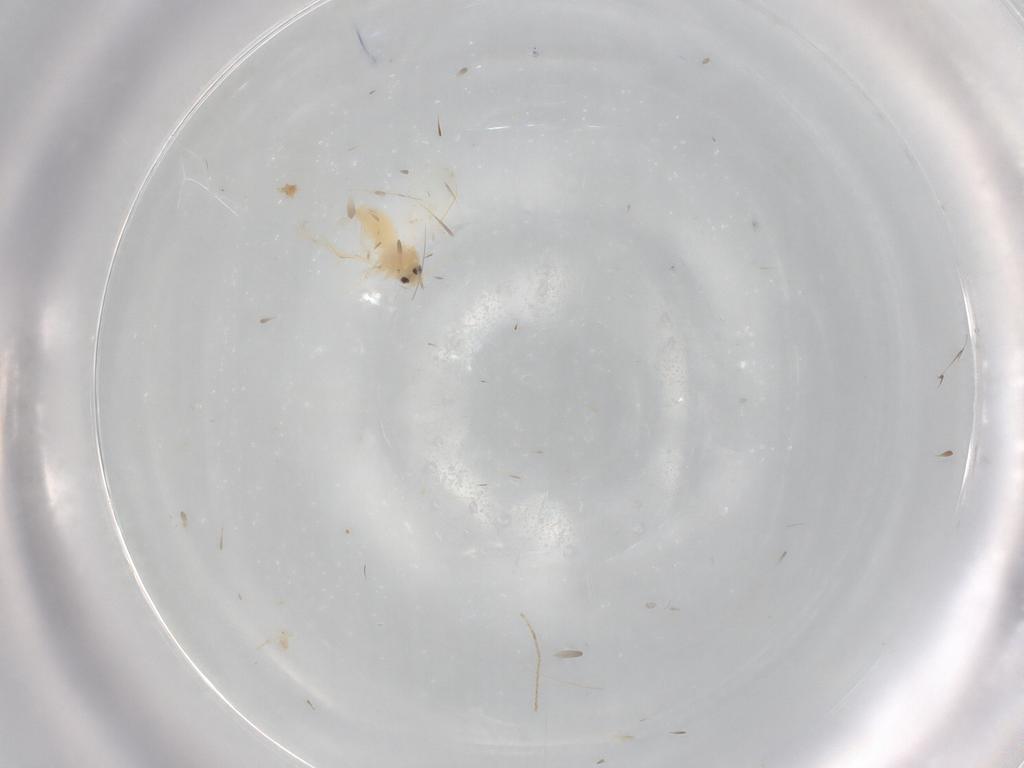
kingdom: Animalia
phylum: Arthropoda
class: Insecta
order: Hemiptera
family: Aleyrodidae
